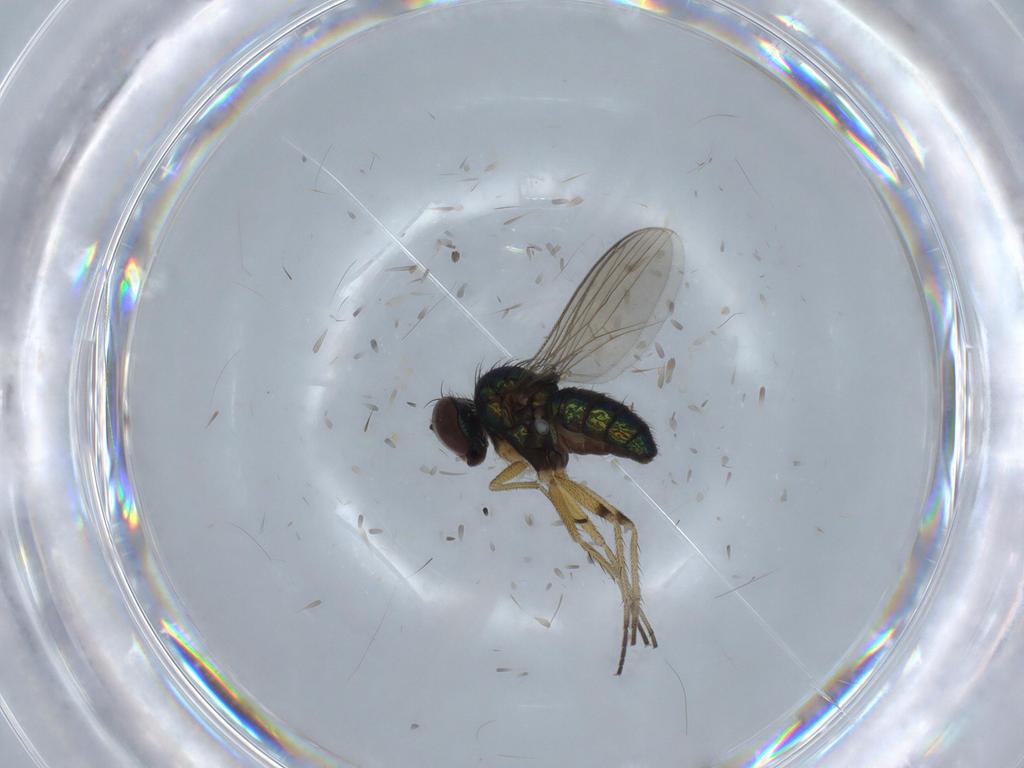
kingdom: Animalia
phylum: Arthropoda
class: Insecta
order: Diptera
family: Dolichopodidae
